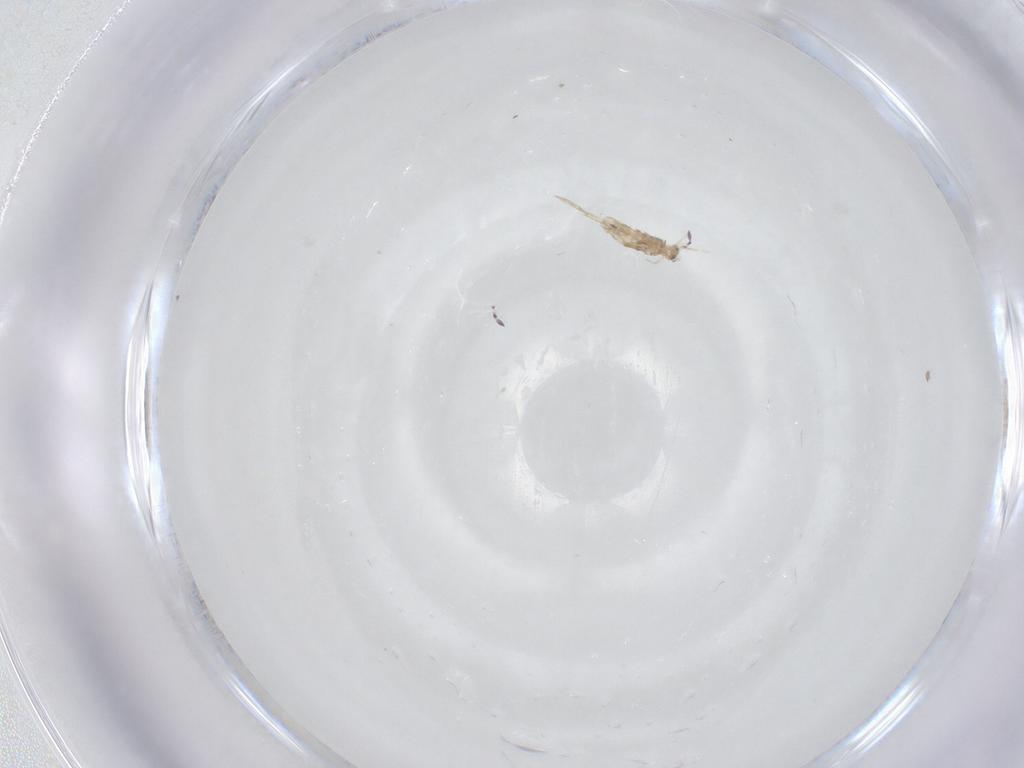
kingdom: Animalia
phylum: Arthropoda
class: Collembola
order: Entomobryomorpha
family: Entomobryidae
